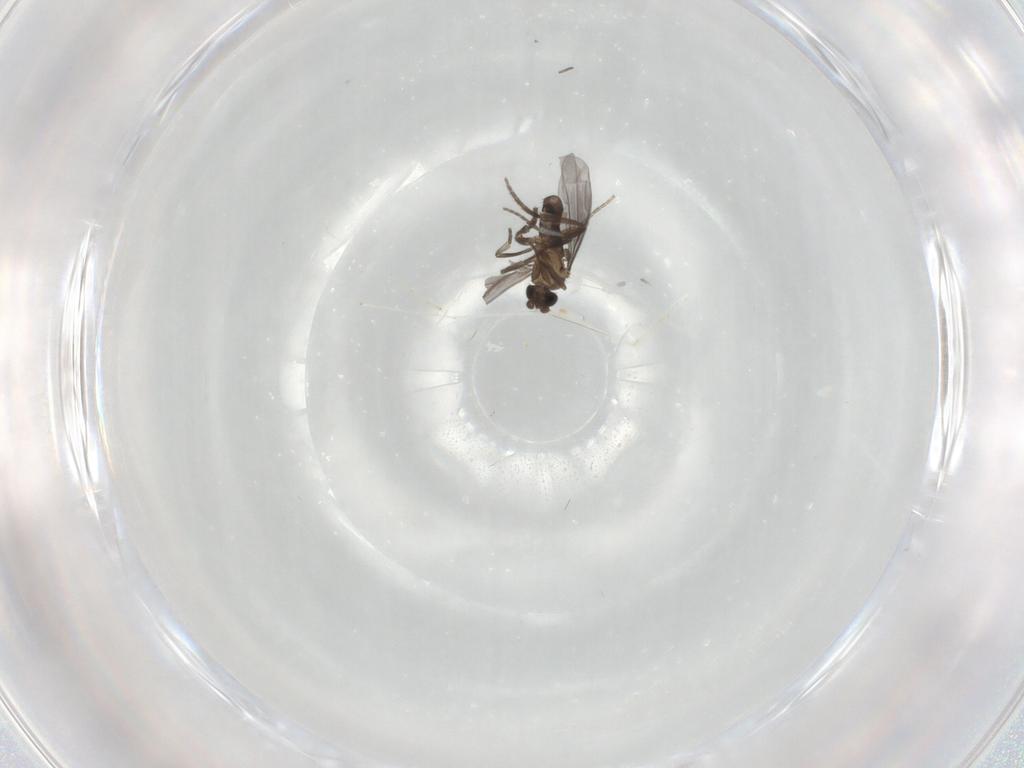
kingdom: Animalia
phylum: Arthropoda
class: Insecta
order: Diptera
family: Phoridae
